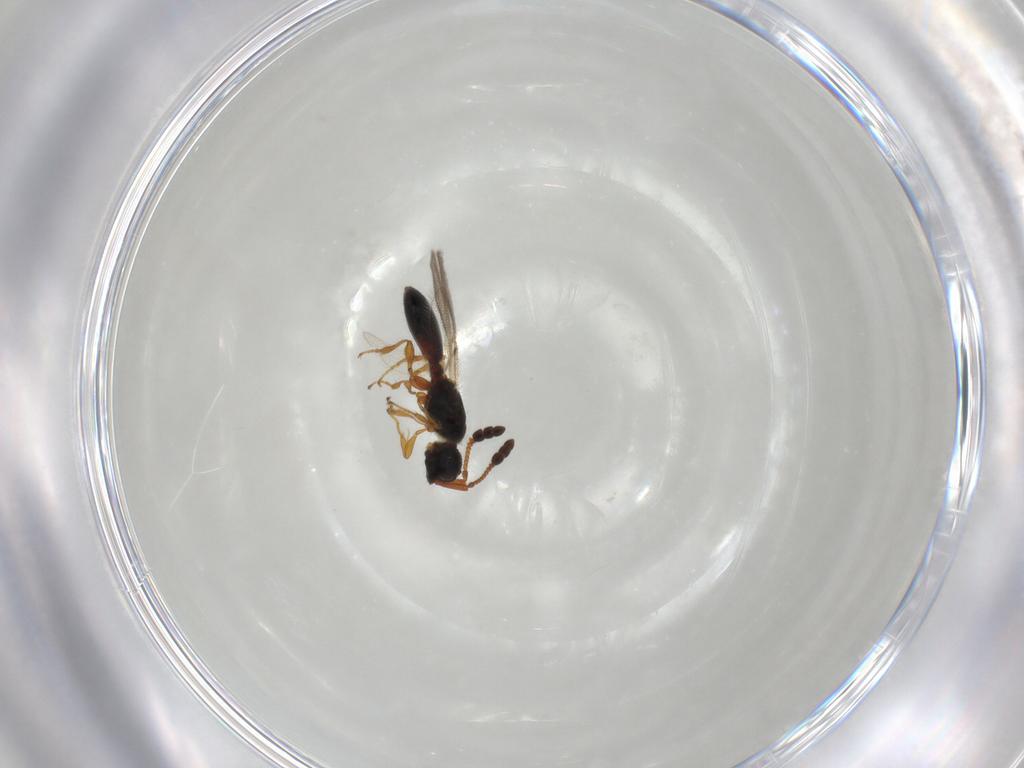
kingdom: Animalia
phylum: Arthropoda
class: Insecta
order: Hymenoptera
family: Diapriidae
